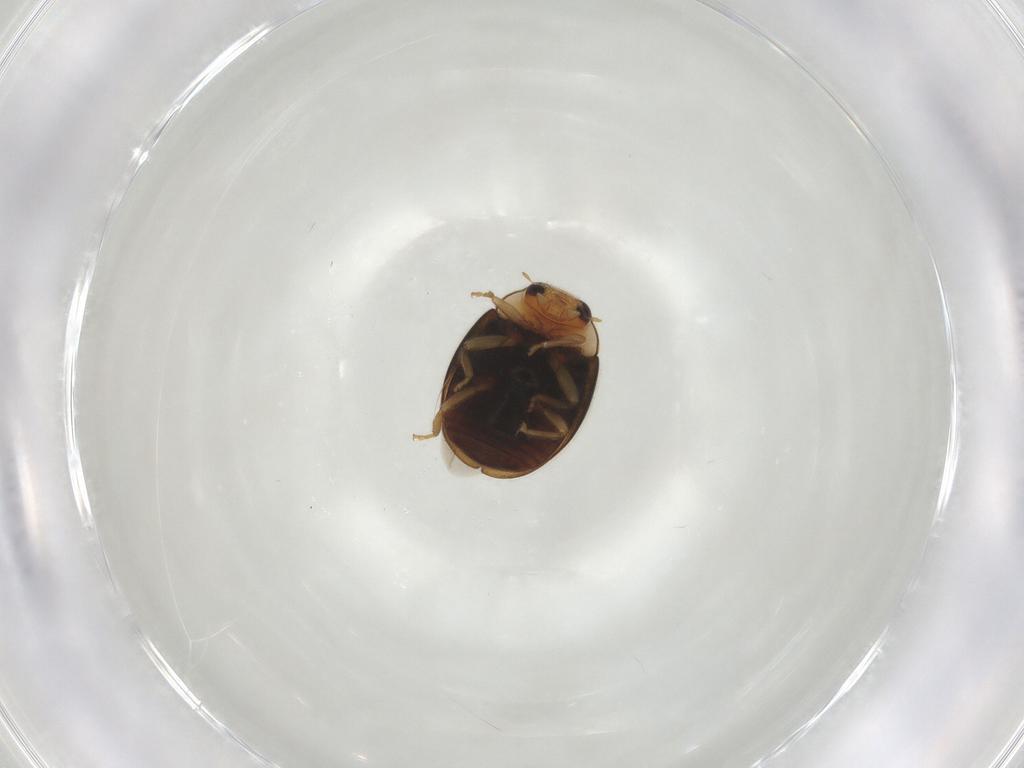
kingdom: Animalia
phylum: Arthropoda
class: Insecta
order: Coleoptera
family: Coccinellidae
